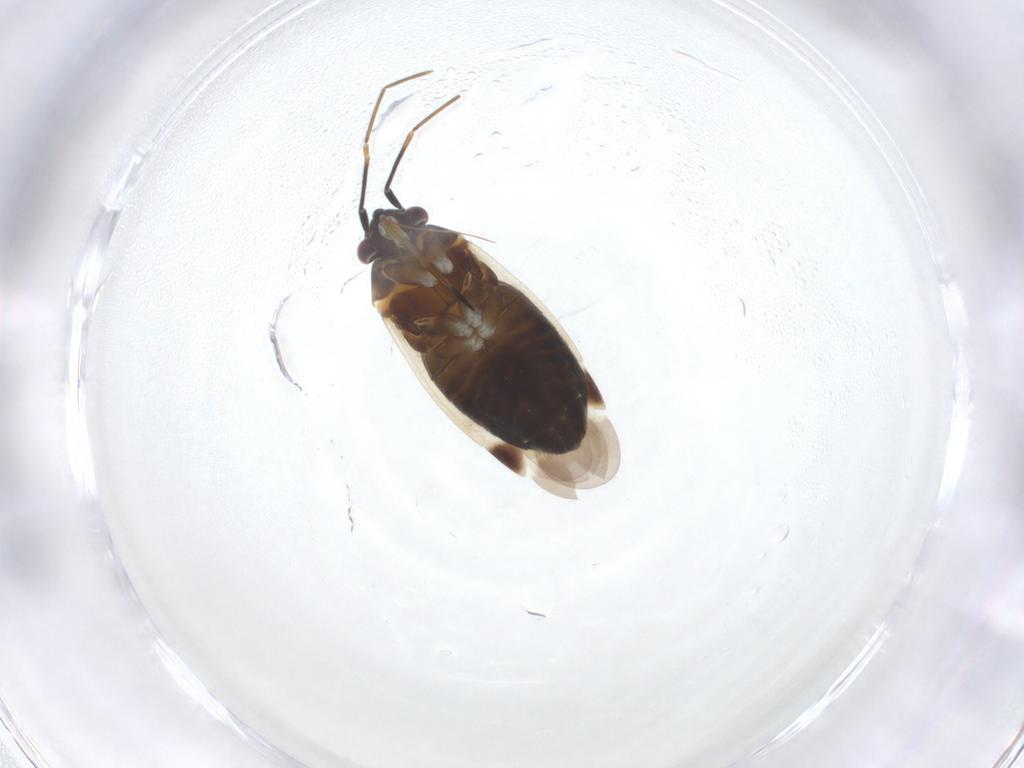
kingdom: Animalia
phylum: Arthropoda
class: Insecta
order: Hemiptera
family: Miridae
